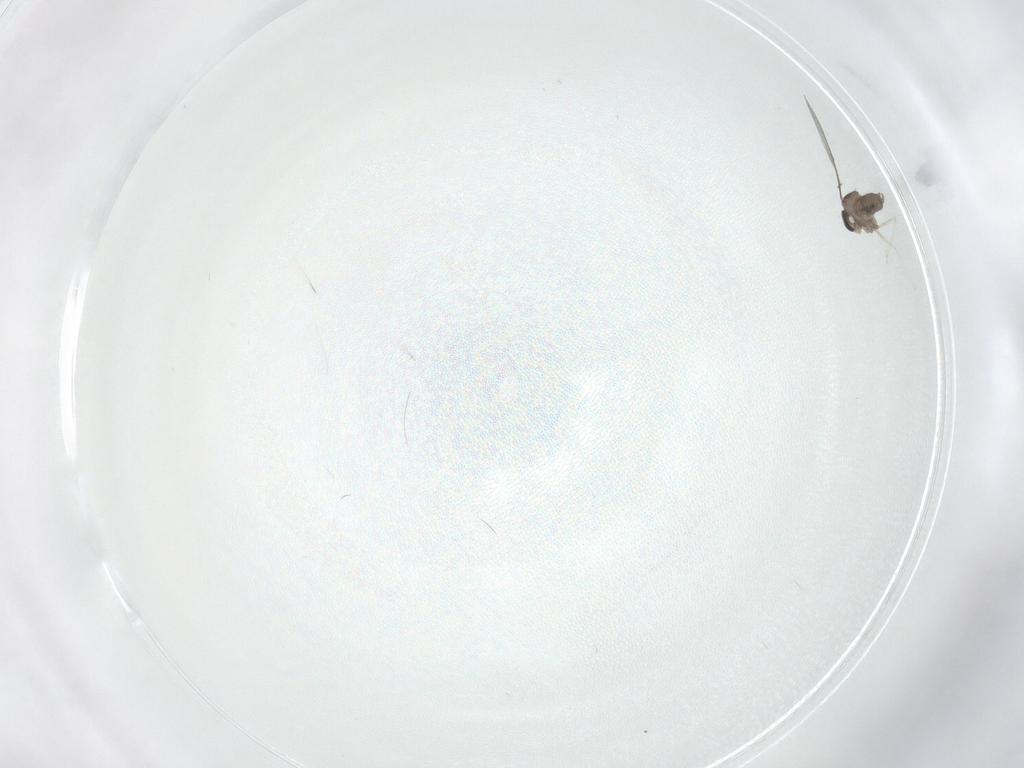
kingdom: Animalia
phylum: Arthropoda
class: Insecta
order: Diptera
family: Cecidomyiidae
